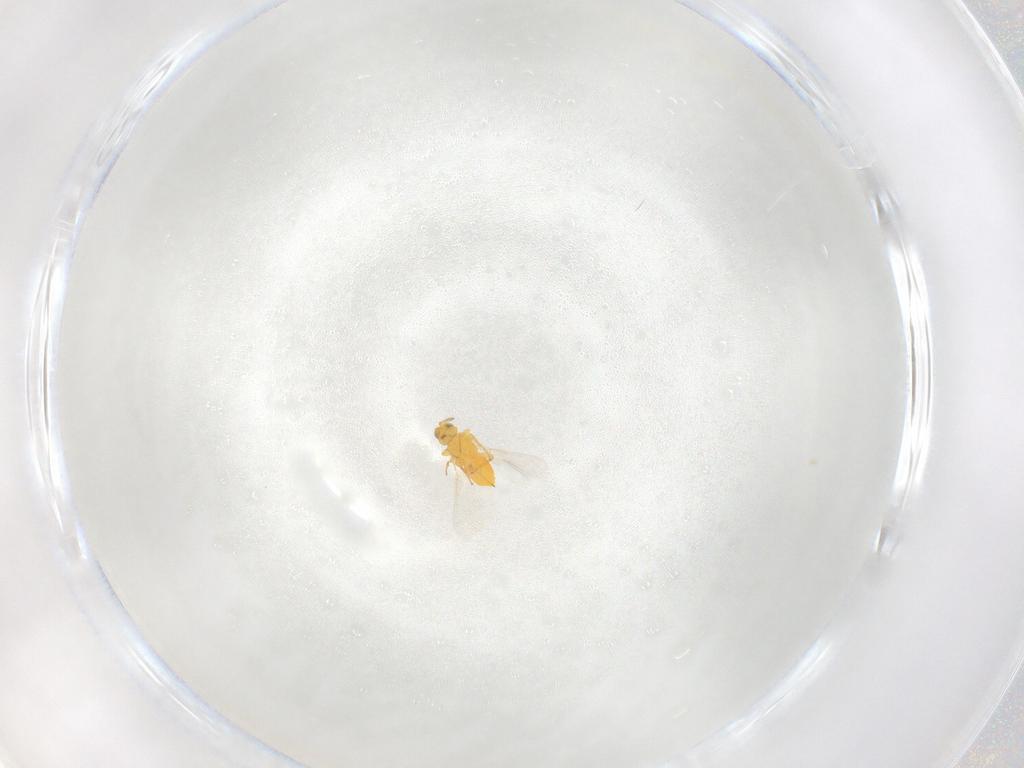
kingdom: Animalia
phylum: Arthropoda
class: Insecta
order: Hymenoptera
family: Aphelinidae
